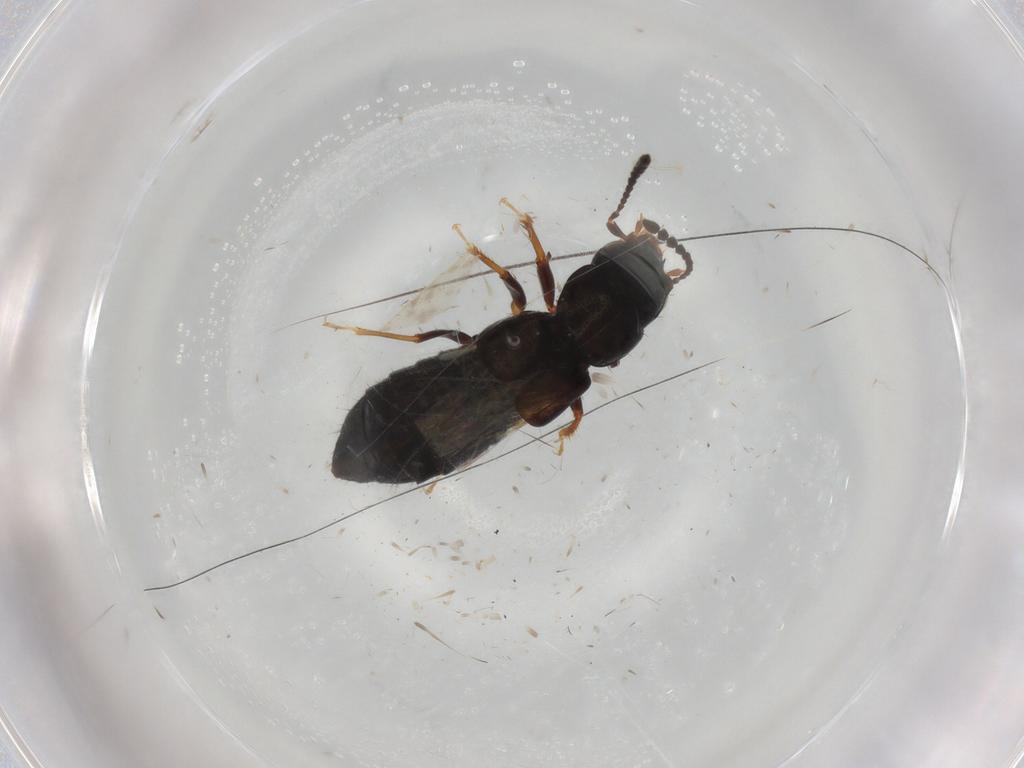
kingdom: Animalia
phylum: Arthropoda
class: Insecta
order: Coleoptera
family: Staphylinidae
